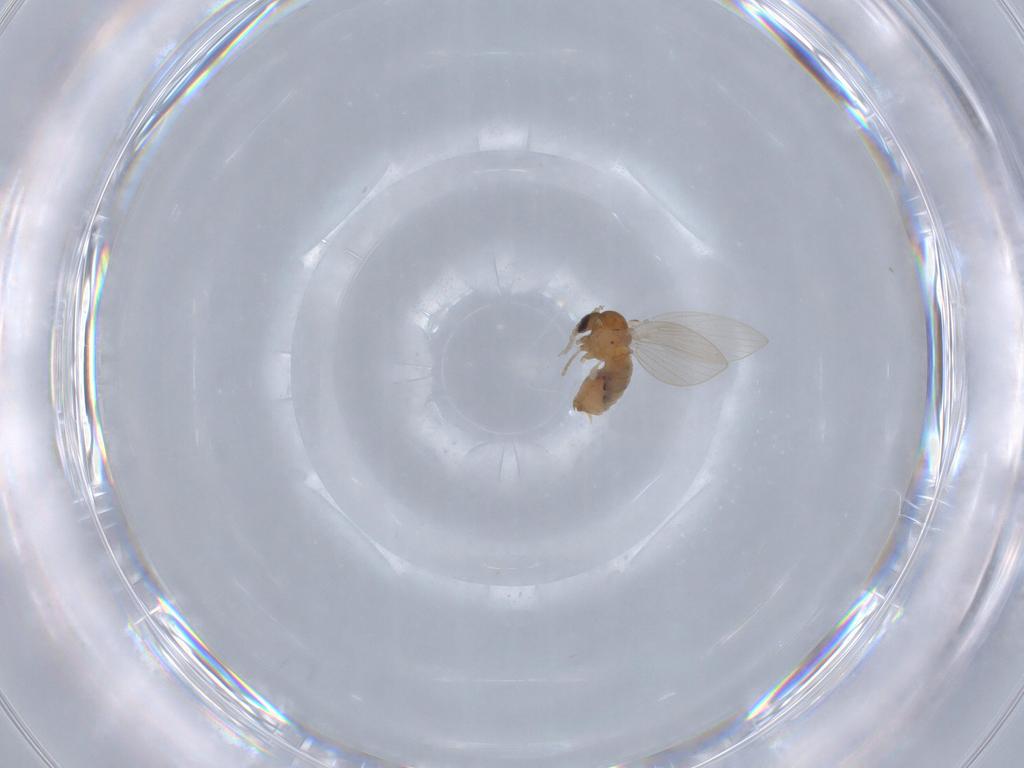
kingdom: Animalia
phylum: Arthropoda
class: Insecta
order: Diptera
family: Psychodidae
